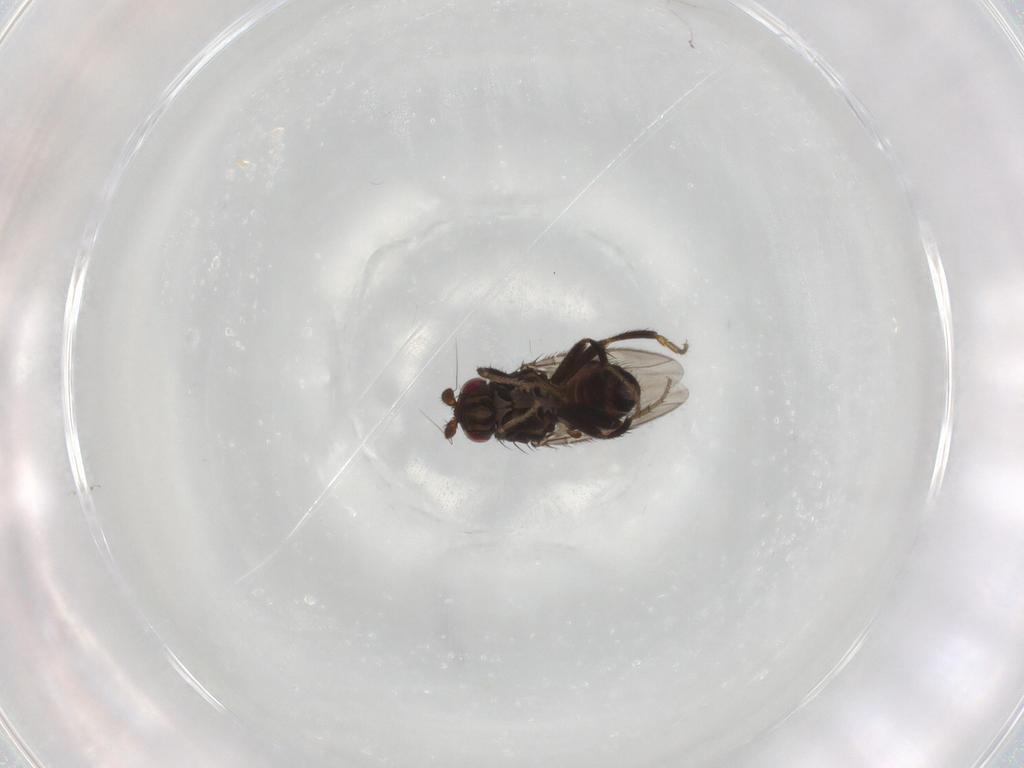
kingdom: Animalia
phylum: Arthropoda
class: Insecta
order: Diptera
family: Sphaeroceridae
